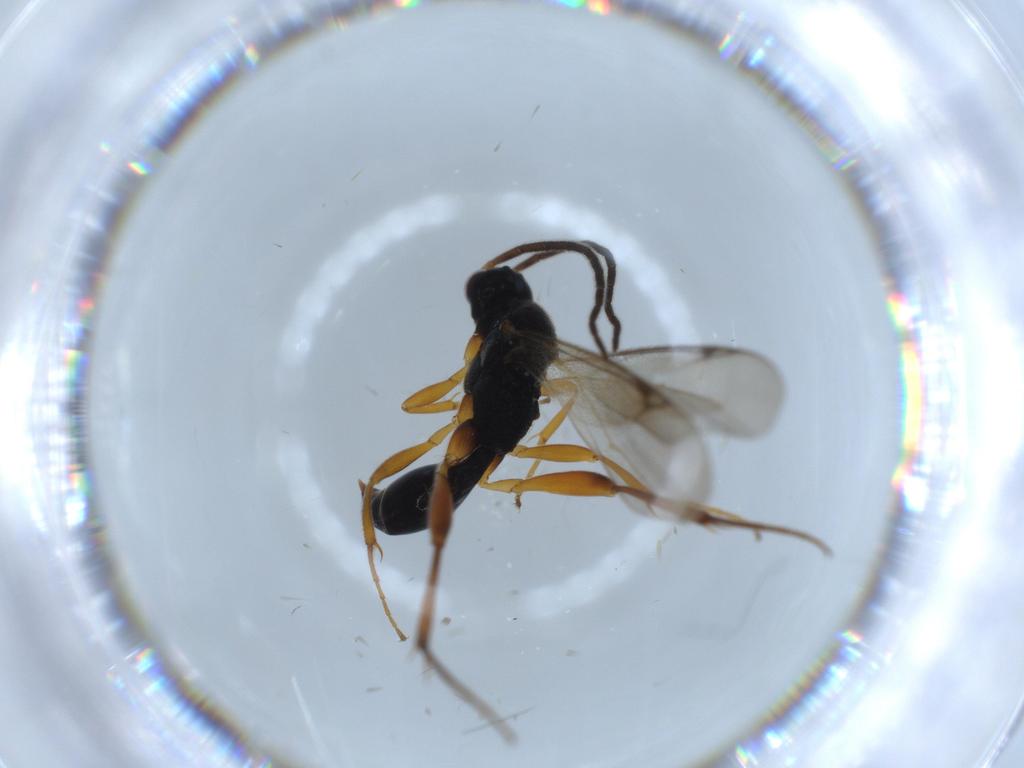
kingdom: Animalia
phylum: Arthropoda
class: Insecta
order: Hymenoptera
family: Proctotrupidae
